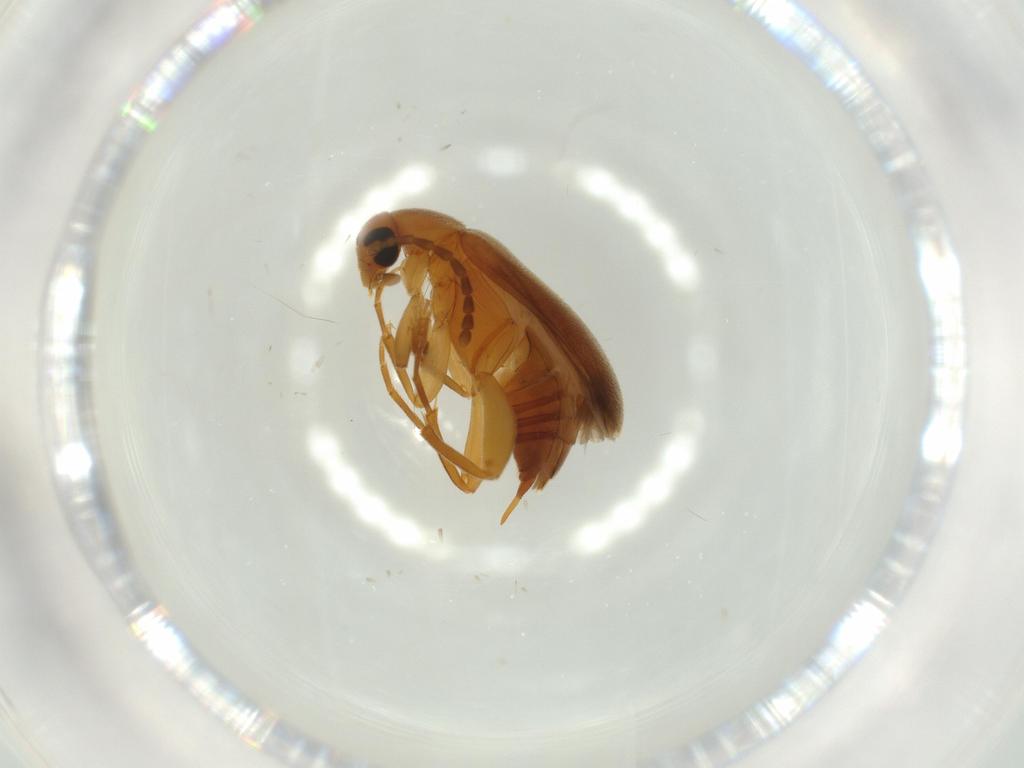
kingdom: Animalia
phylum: Arthropoda
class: Insecta
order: Coleoptera
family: Scraptiidae
